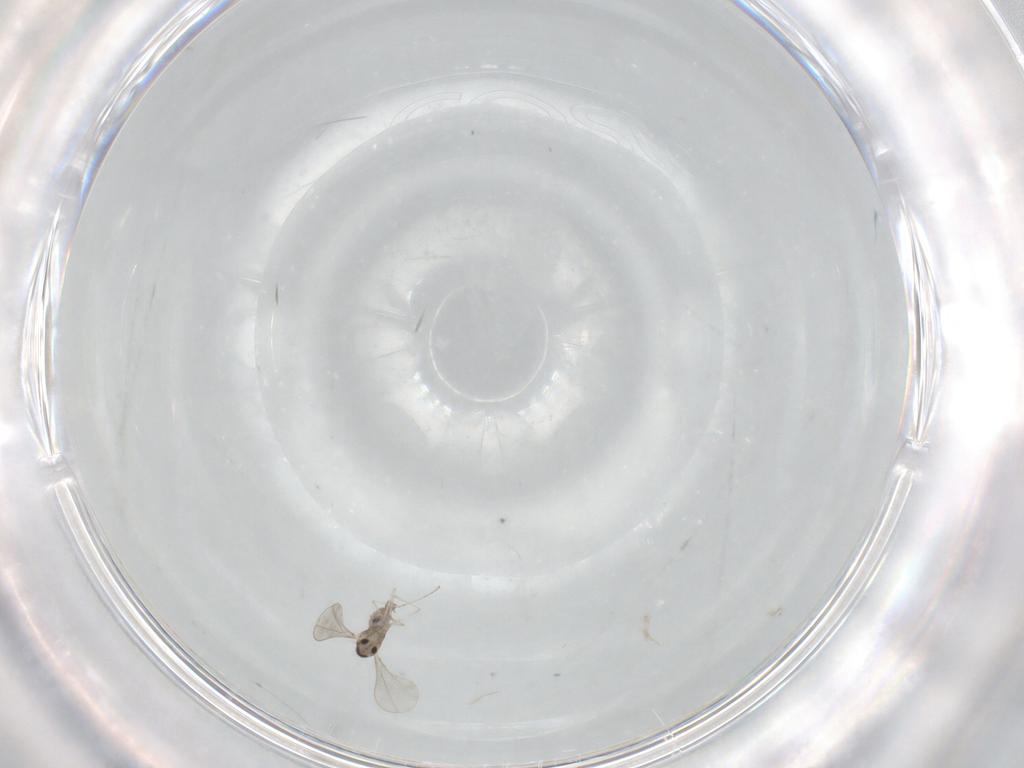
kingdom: Animalia
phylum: Arthropoda
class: Insecta
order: Diptera
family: Cecidomyiidae
